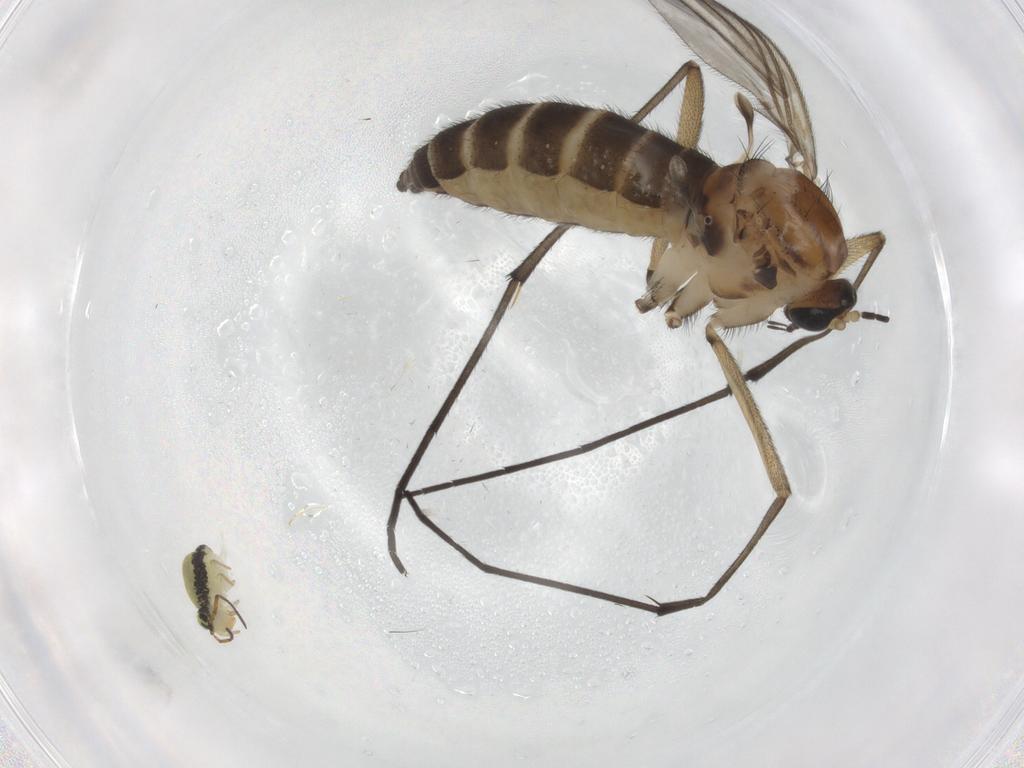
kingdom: Animalia
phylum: Arthropoda
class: Insecta
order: Diptera
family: Sciaridae
